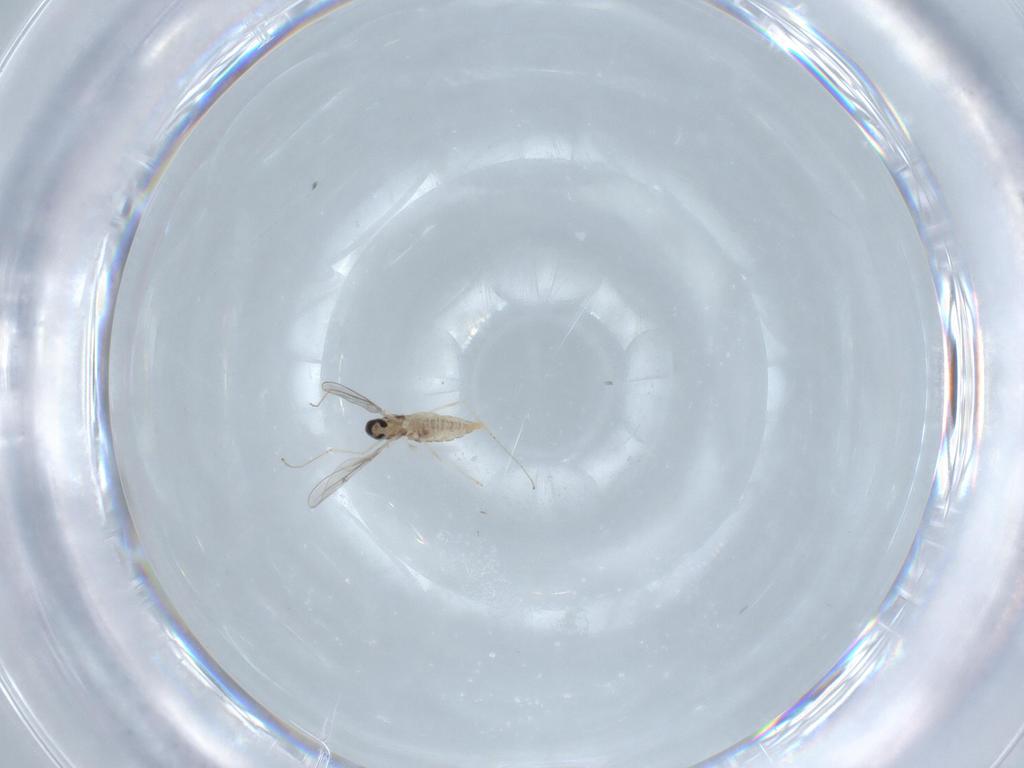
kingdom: Animalia
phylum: Arthropoda
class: Insecta
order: Diptera
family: Cecidomyiidae
